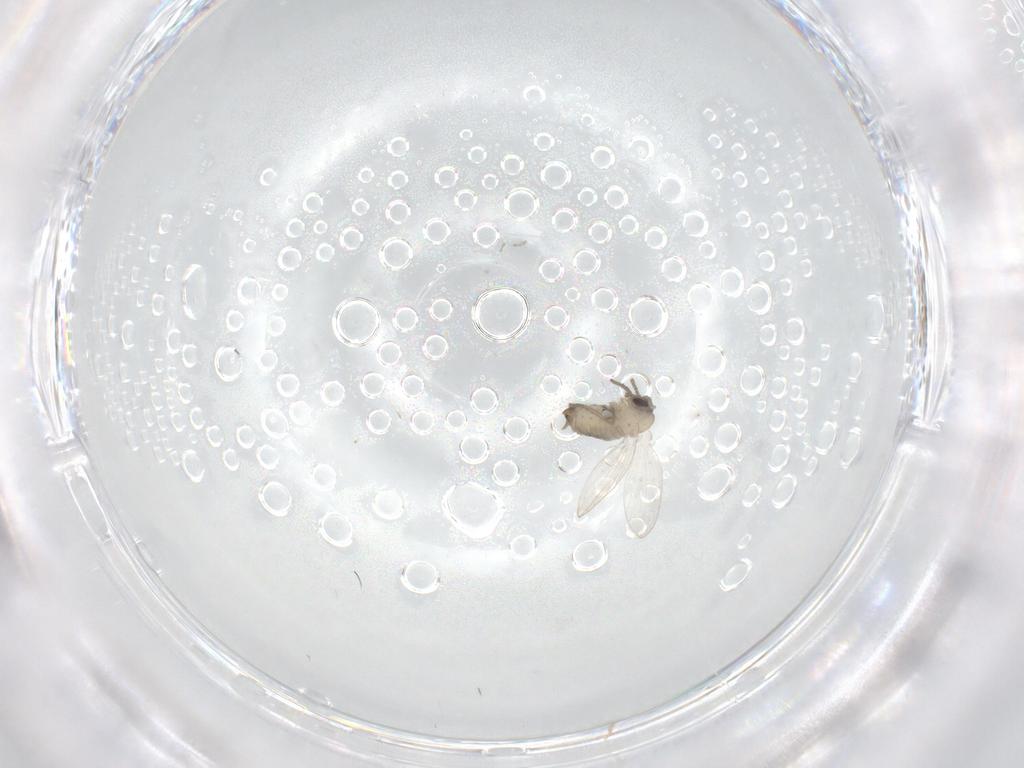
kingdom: Animalia
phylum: Arthropoda
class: Insecta
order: Diptera
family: Psychodidae
